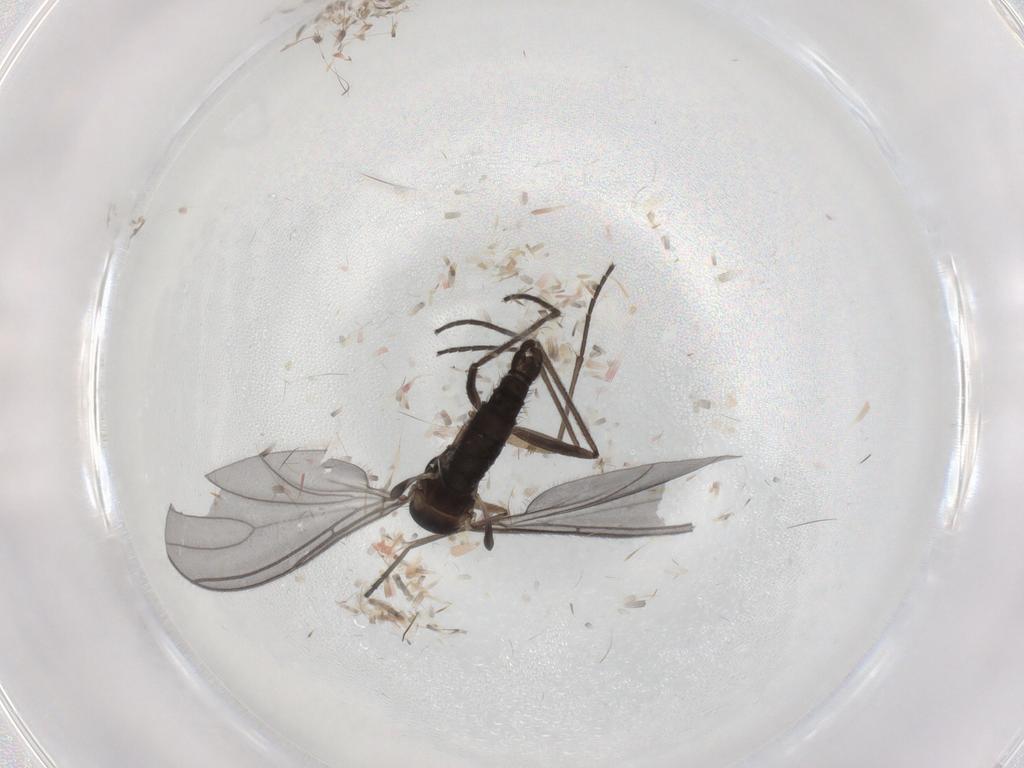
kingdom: Animalia
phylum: Arthropoda
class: Insecta
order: Diptera
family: Sciaridae
